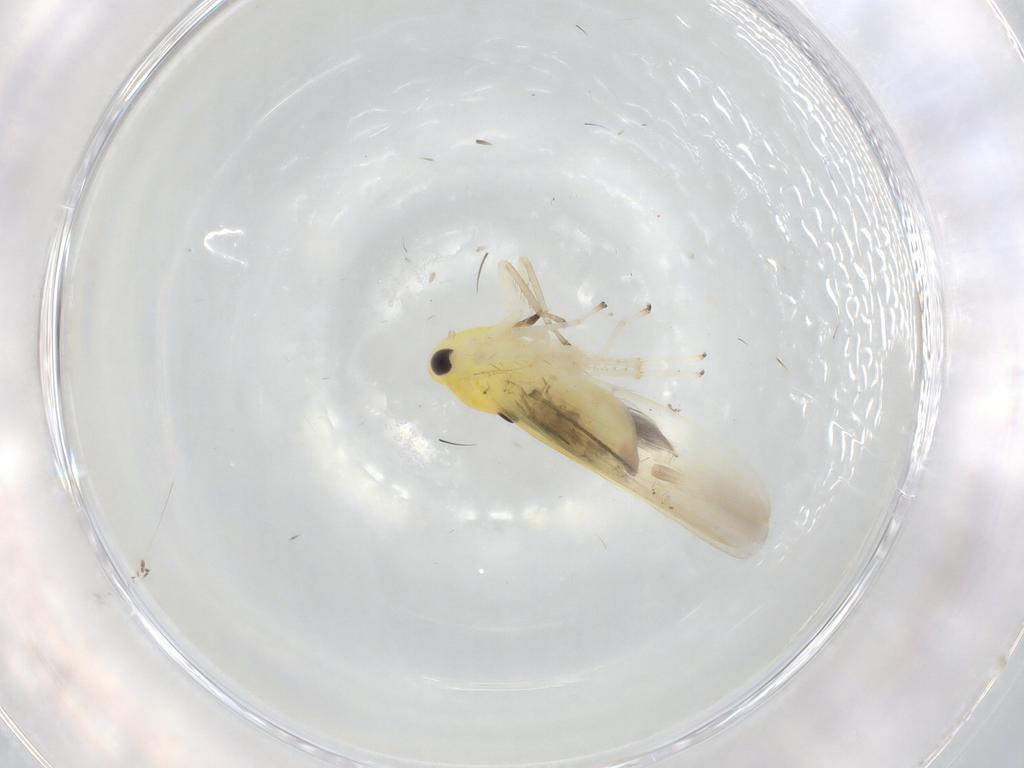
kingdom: Animalia
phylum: Arthropoda
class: Insecta
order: Hemiptera
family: Cicadellidae
